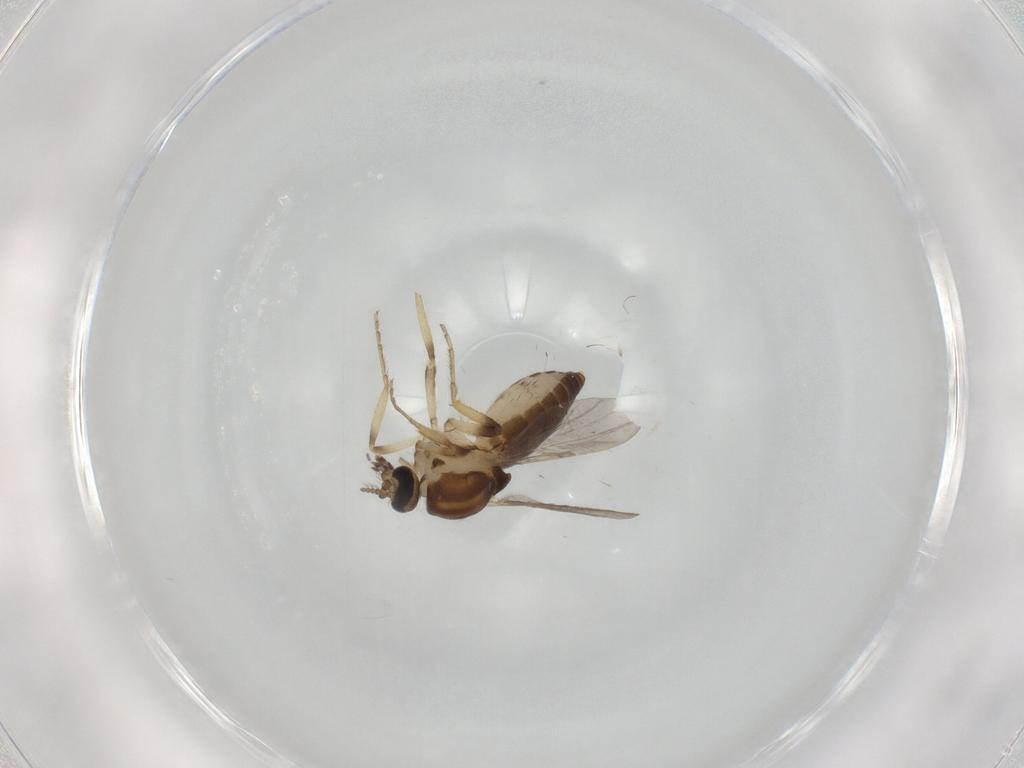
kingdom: Animalia
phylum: Arthropoda
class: Insecta
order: Diptera
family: Ceratopogonidae
